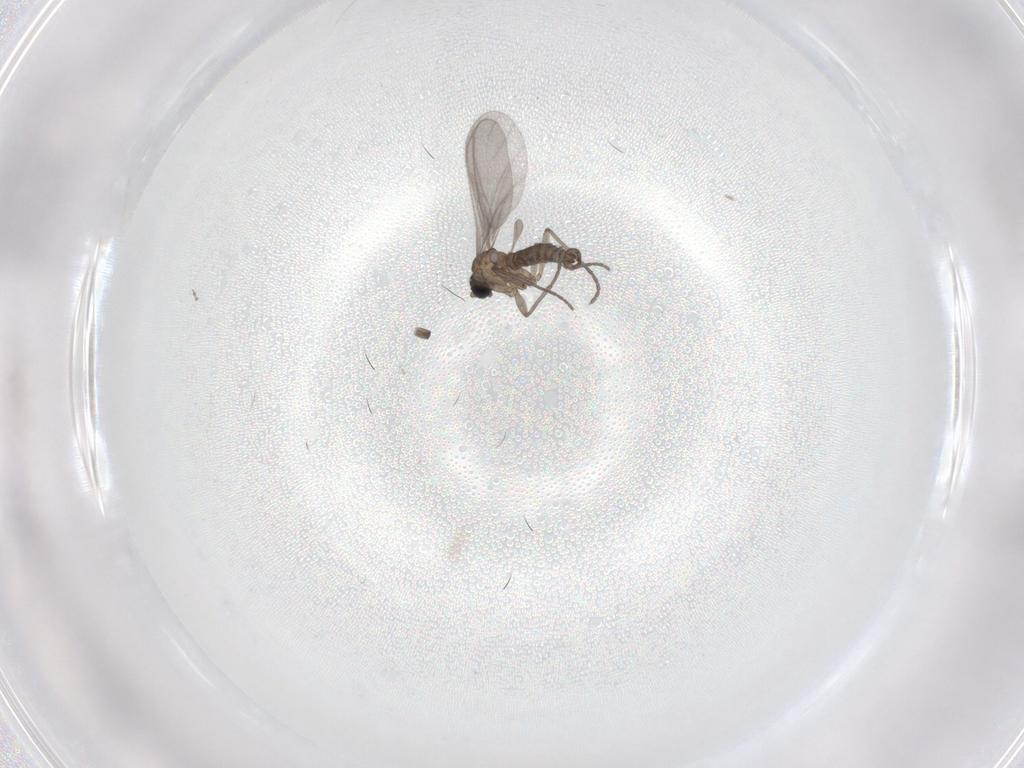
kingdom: Animalia
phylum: Arthropoda
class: Insecta
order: Diptera
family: Sciaridae
